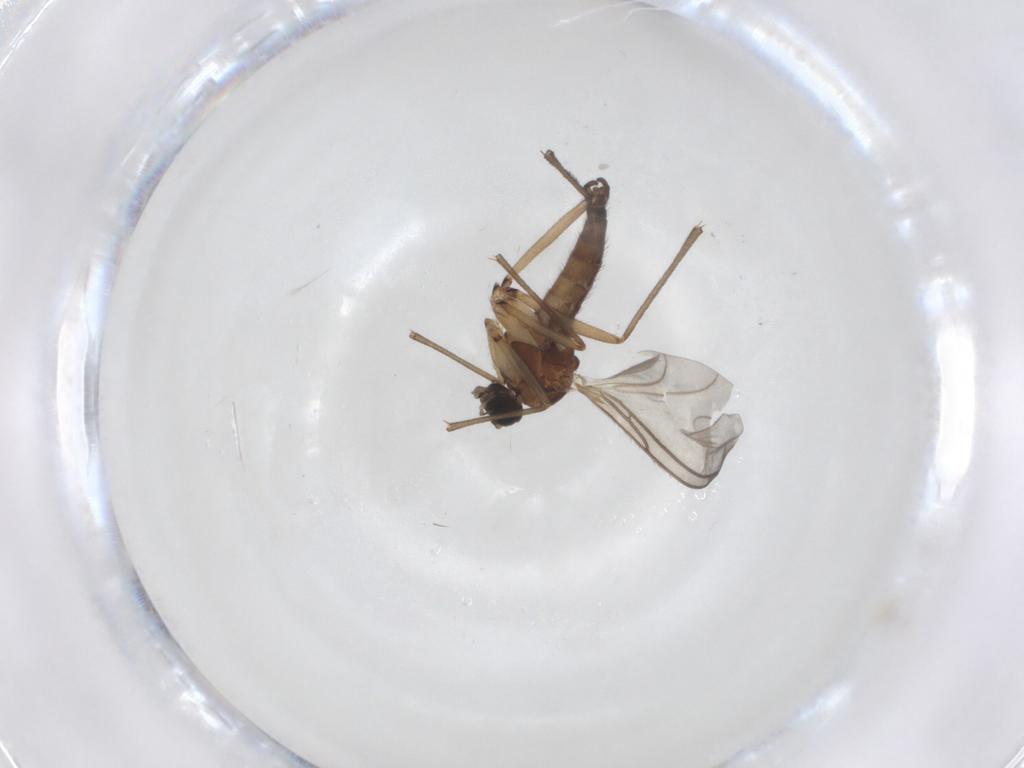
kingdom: Animalia
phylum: Arthropoda
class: Insecta
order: Diptera
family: Sciaridae
